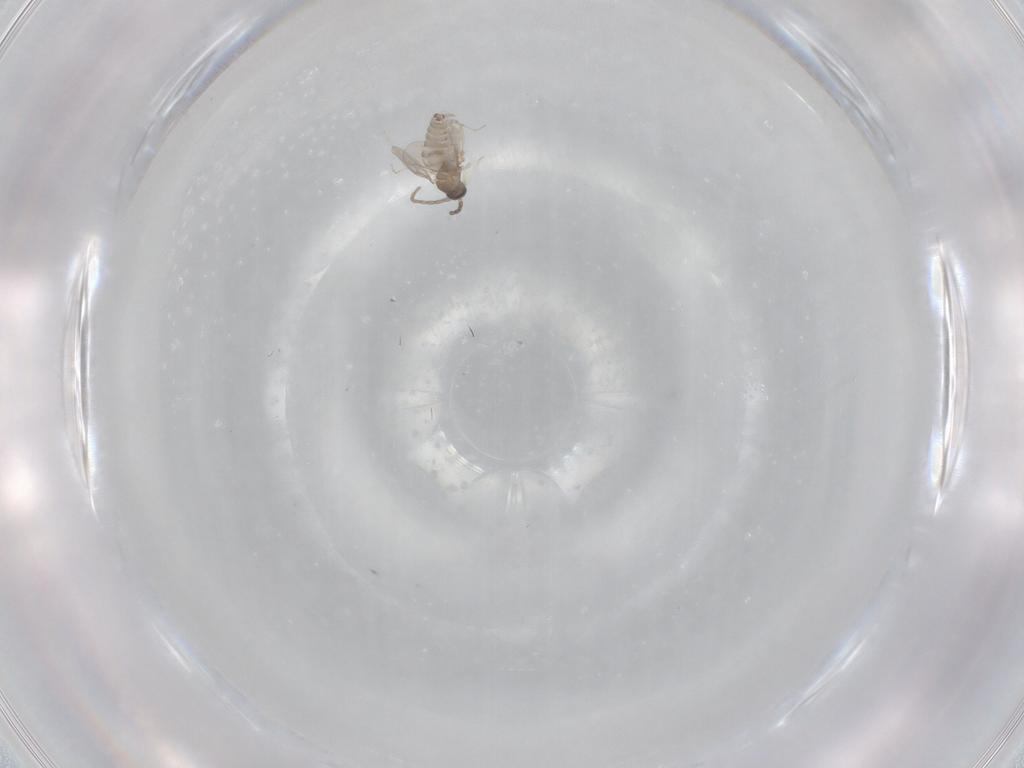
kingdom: Animalia
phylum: Arthropoda
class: Insecta
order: Diptera
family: Cecidomyiidae
